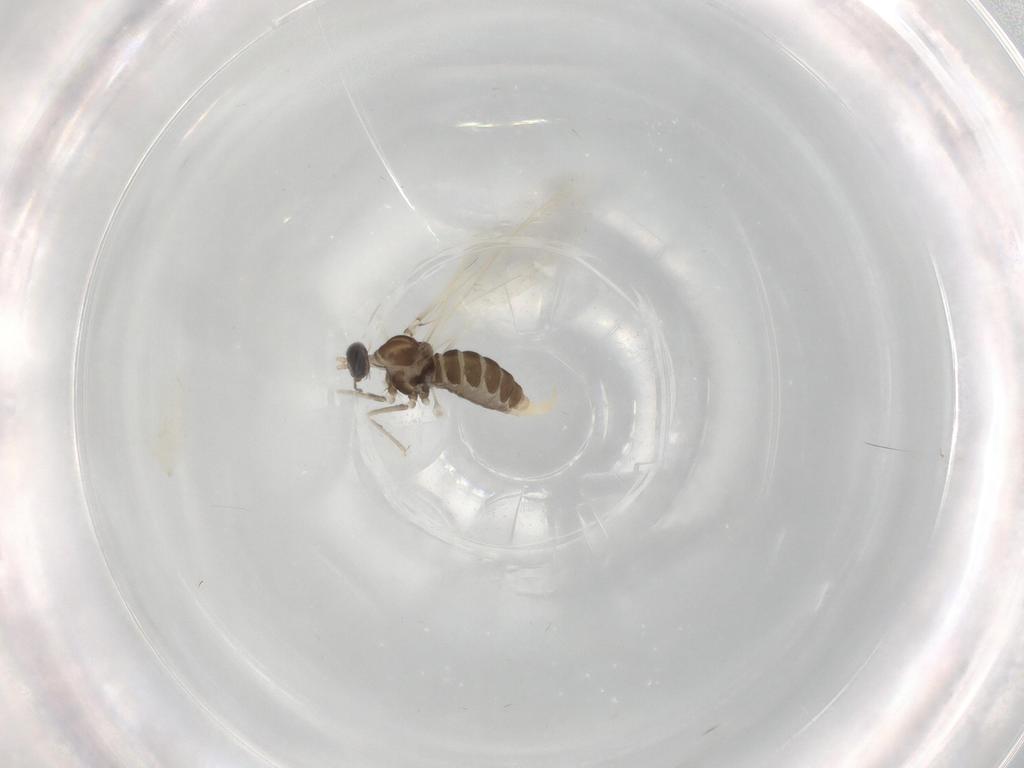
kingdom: Animalia
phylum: Arthropoda
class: Insecta
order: Diptera
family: Cecidomyiidae
